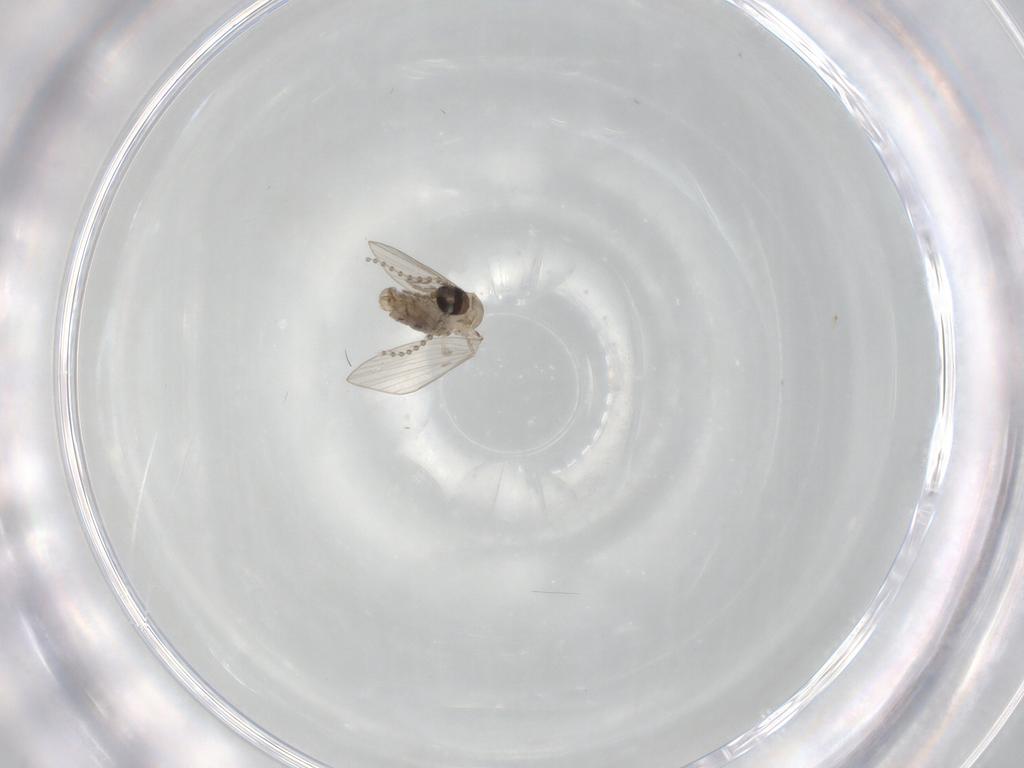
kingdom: Animalia
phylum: Arthropoda
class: Insecta
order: Diptera
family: Psychodidae
